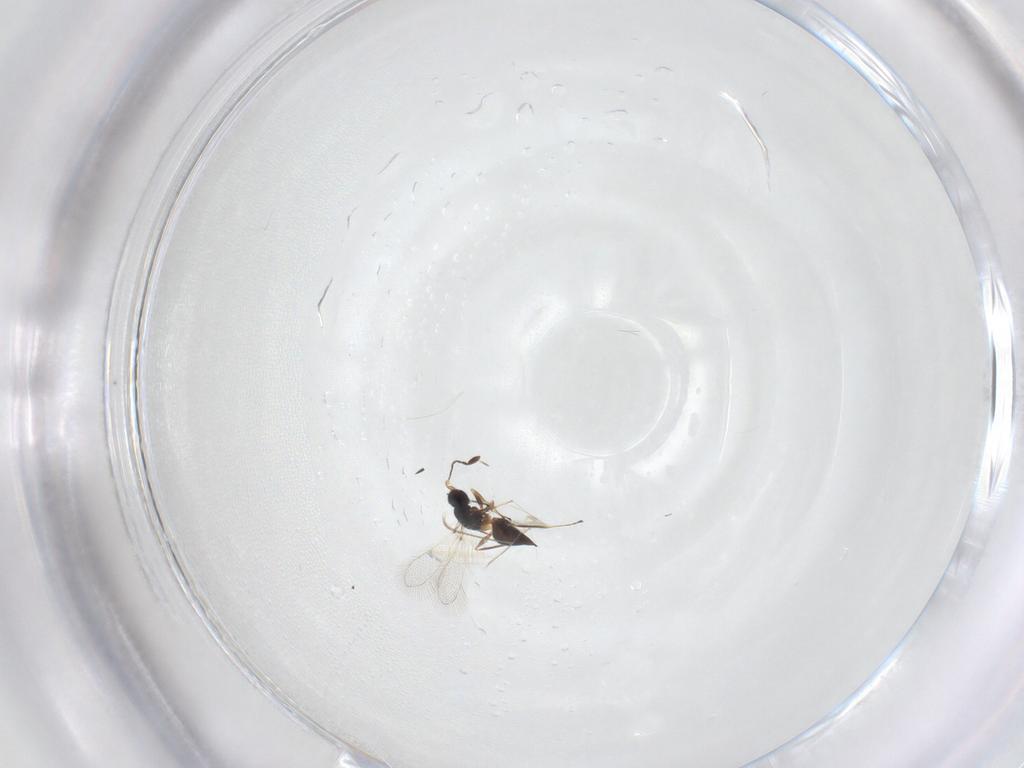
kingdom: Animalia
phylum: Arthropoda
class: Insecta
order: Hymenoptera
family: Mymaridae
